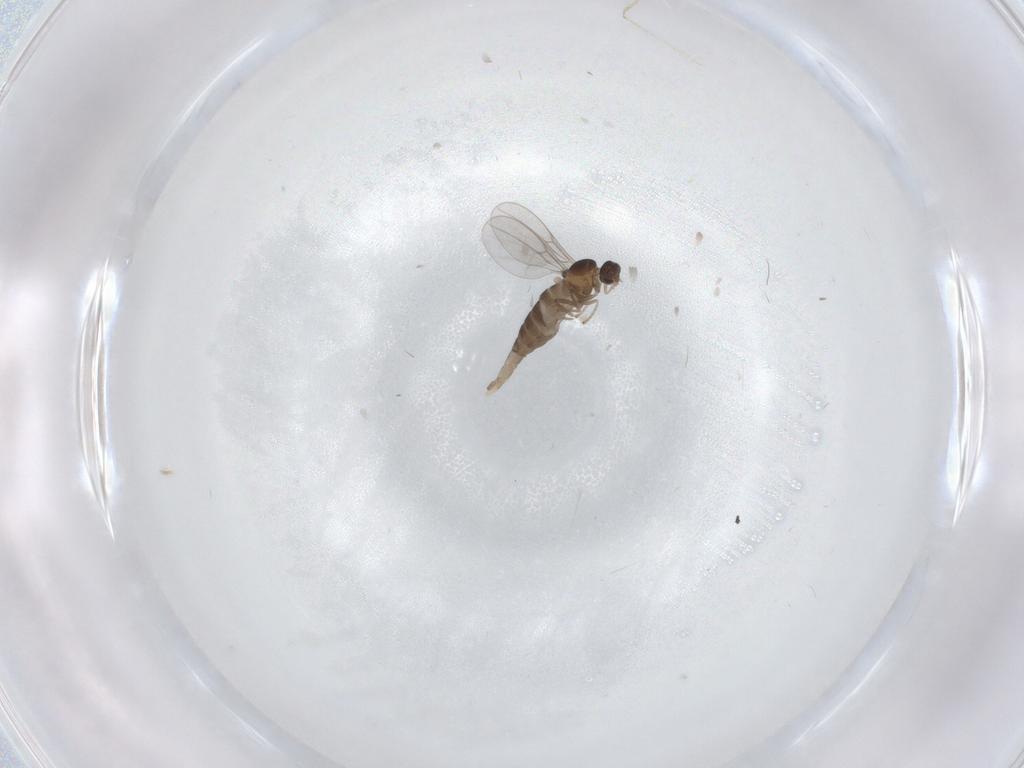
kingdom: Animalia
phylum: Arthropoda
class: Insecta
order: Diptera
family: Cecidomyiidae
